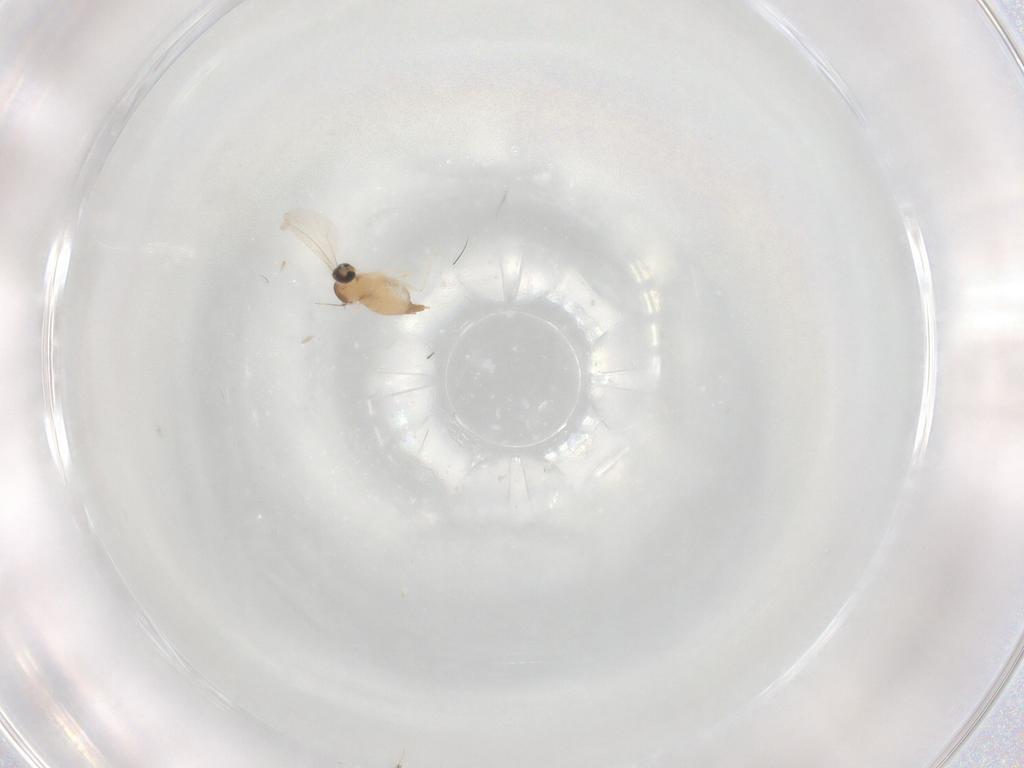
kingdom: Animalia
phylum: Arthropoda
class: Insecta
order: Diptera
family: Cecidomyiidae
